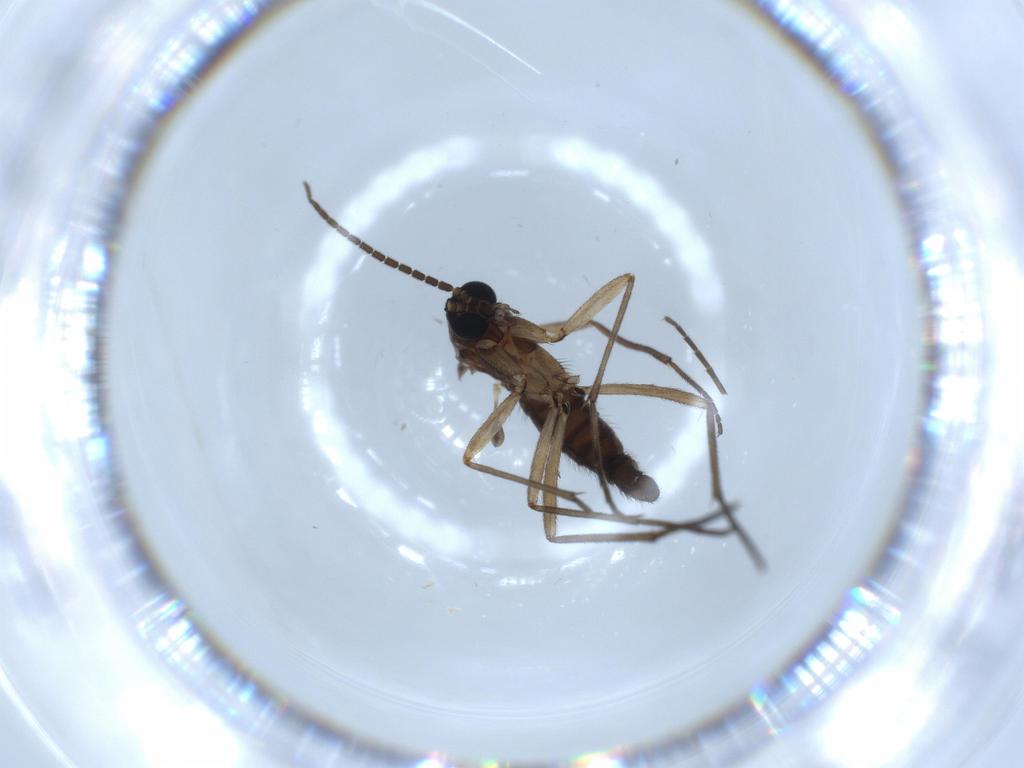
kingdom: Animalia
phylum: Arthropoda
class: Insecta
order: Diptera
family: Sciaridae
